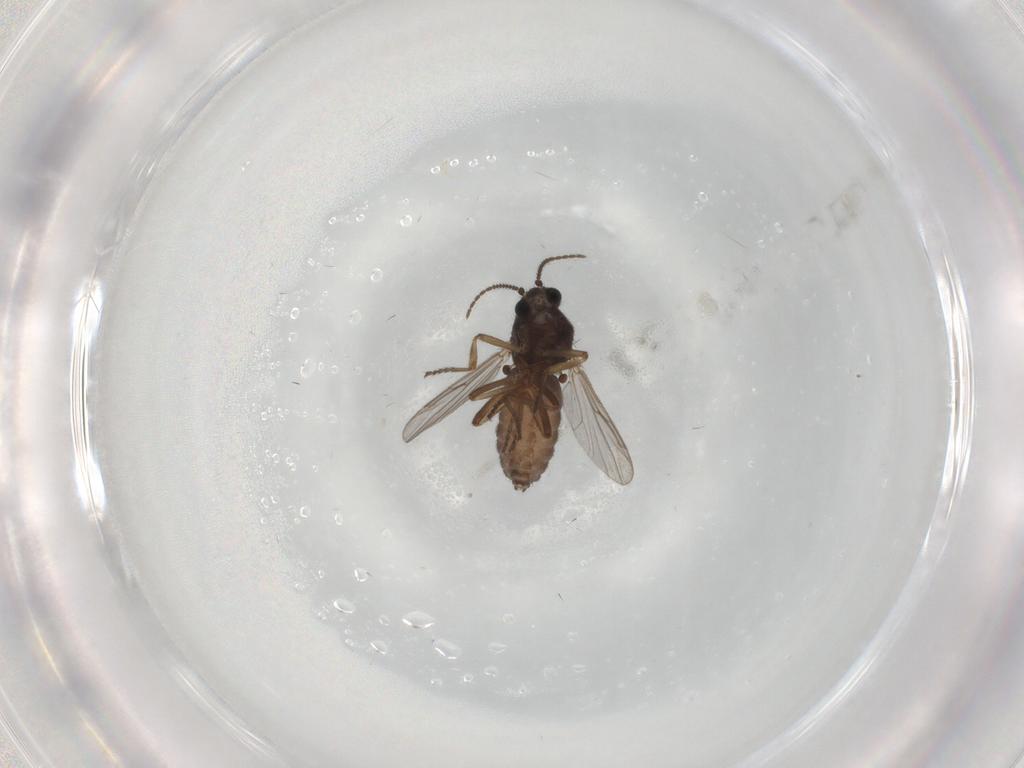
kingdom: Animalia
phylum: Arthropoda
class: Insecta
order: Diptera
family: Ceratopogonidae
